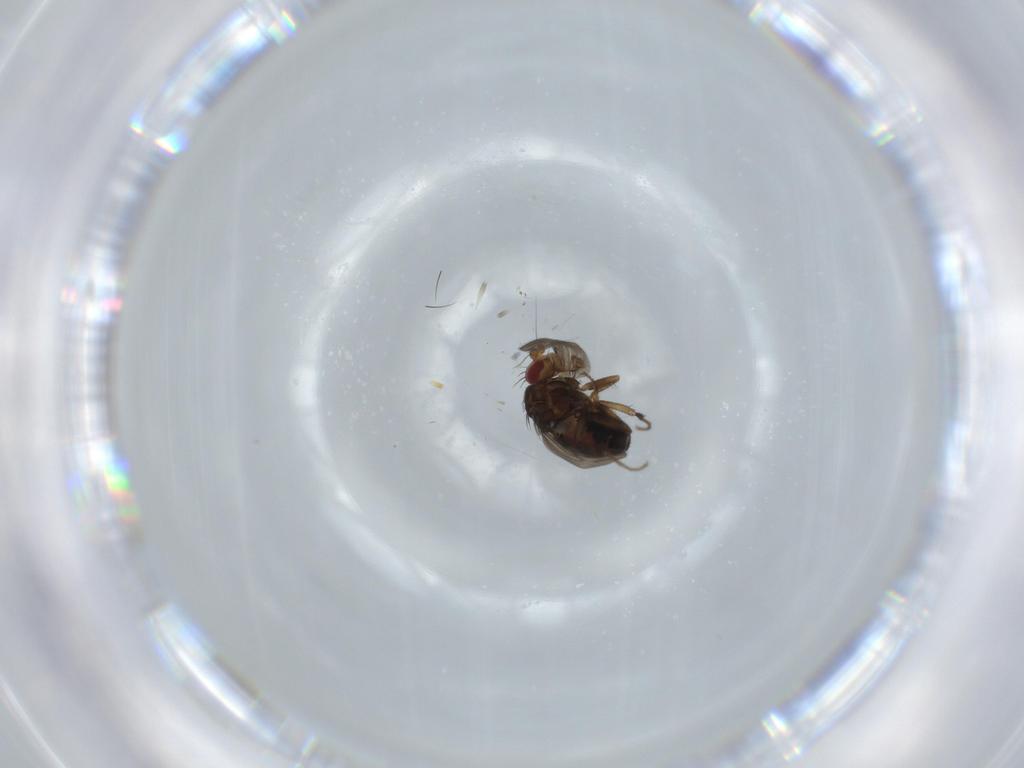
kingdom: Animalia
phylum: Arthropoda
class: Insecta
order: Diptera
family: Sphaeroceridae
